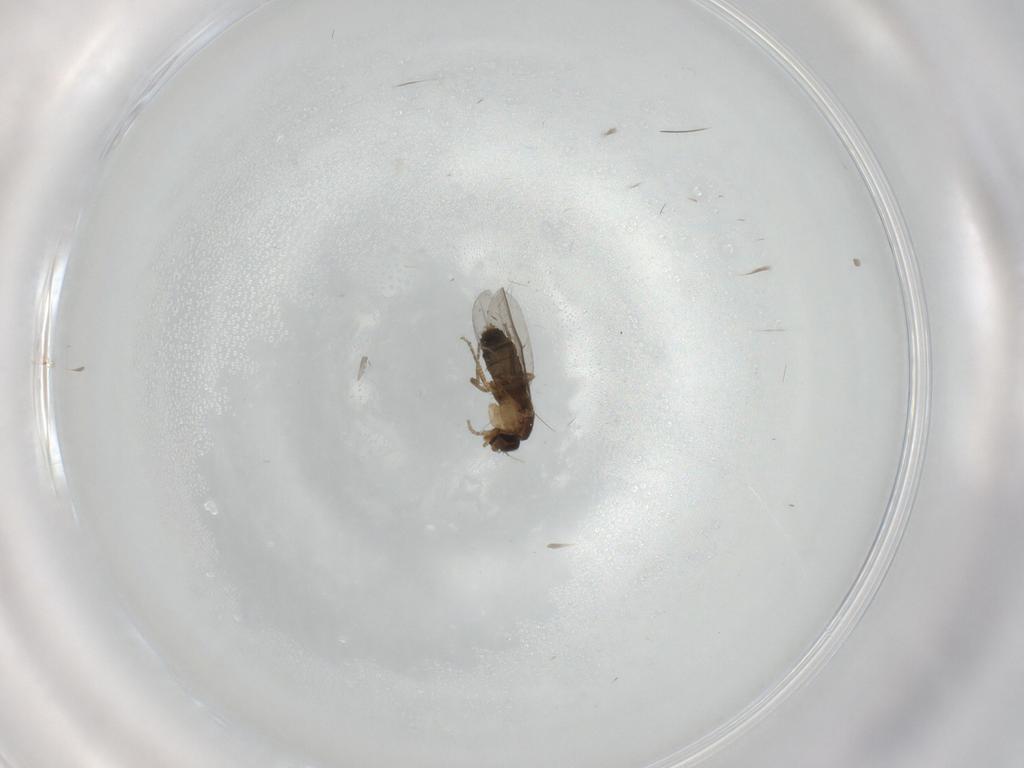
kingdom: Animalia
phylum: Arthropoda
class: Insecta
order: Diptera
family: Phoridae
